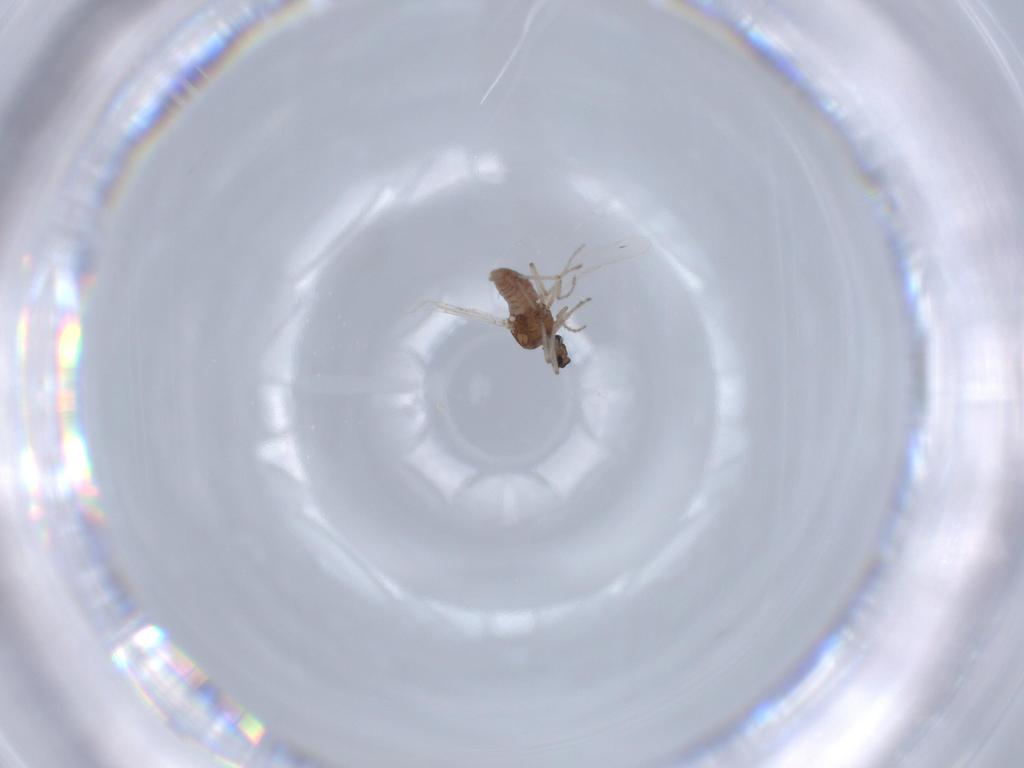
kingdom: Animalia
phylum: Arthropoda
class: Insecta
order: Diptera
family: Ceratopogonidae
